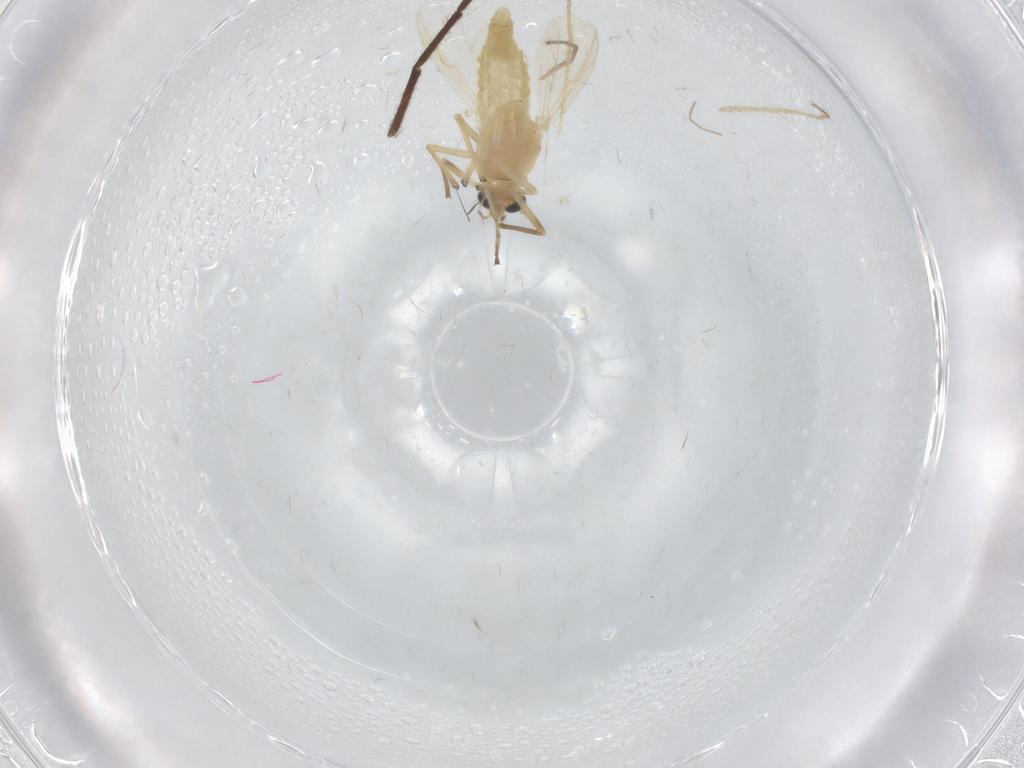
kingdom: Animalia
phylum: Arthropoda
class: Insecta
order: Diptera
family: Chironomidae
